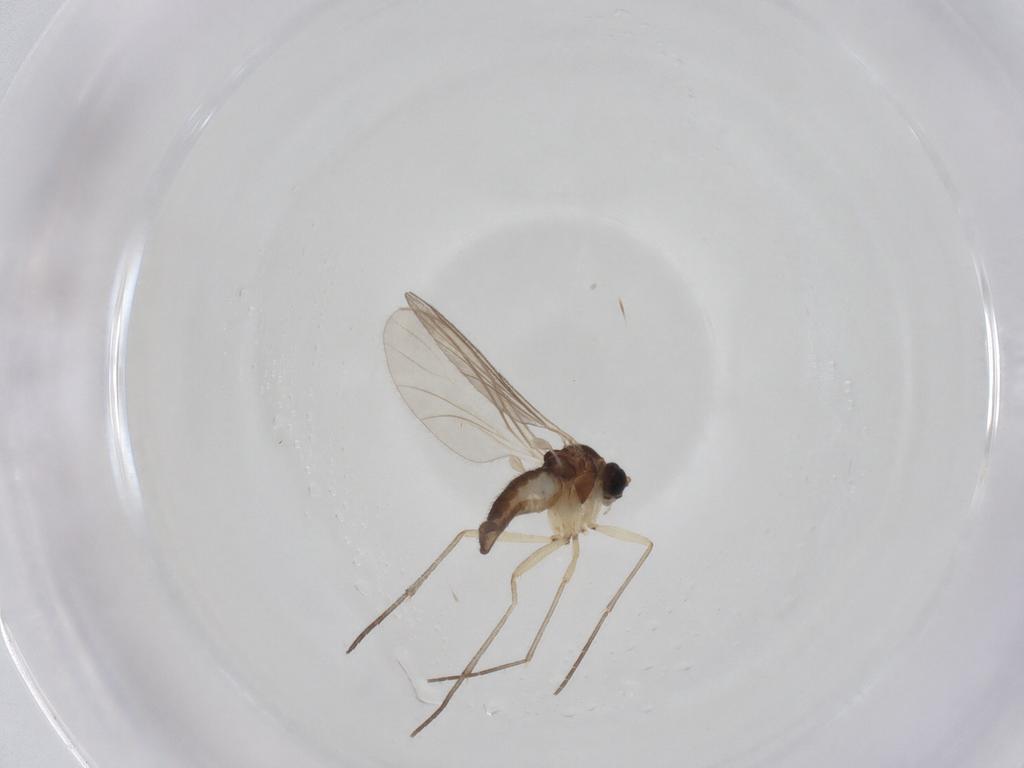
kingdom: Animalia
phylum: Arthropoda
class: Insecta
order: Diptera
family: Sciaridae
